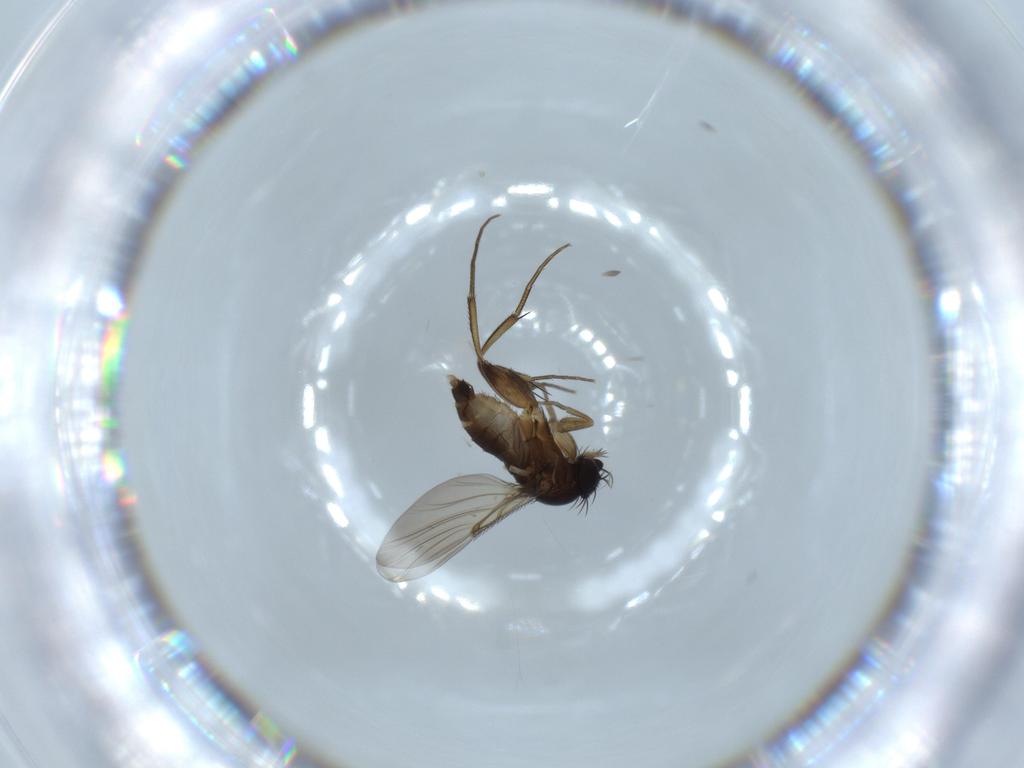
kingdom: Animalia
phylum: Arthropoda
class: Insecta
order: Diptera
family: Phoridae
